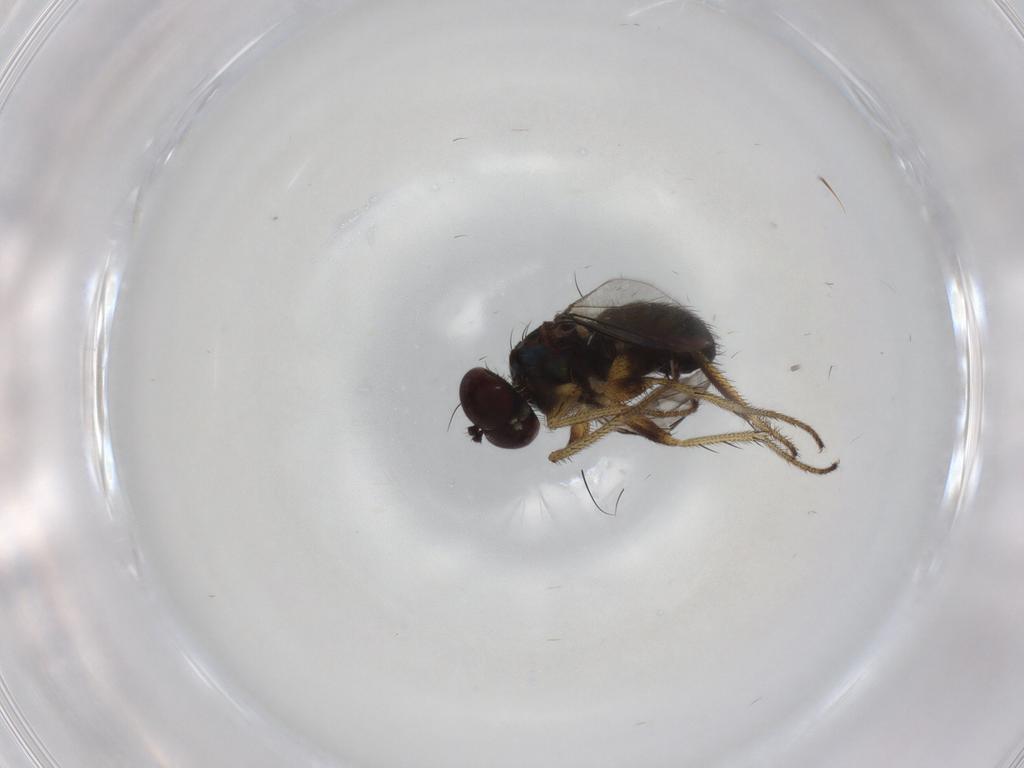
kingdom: Animalia
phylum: Arthropoda
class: Insecta
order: Diptera
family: Dolichopodidae
